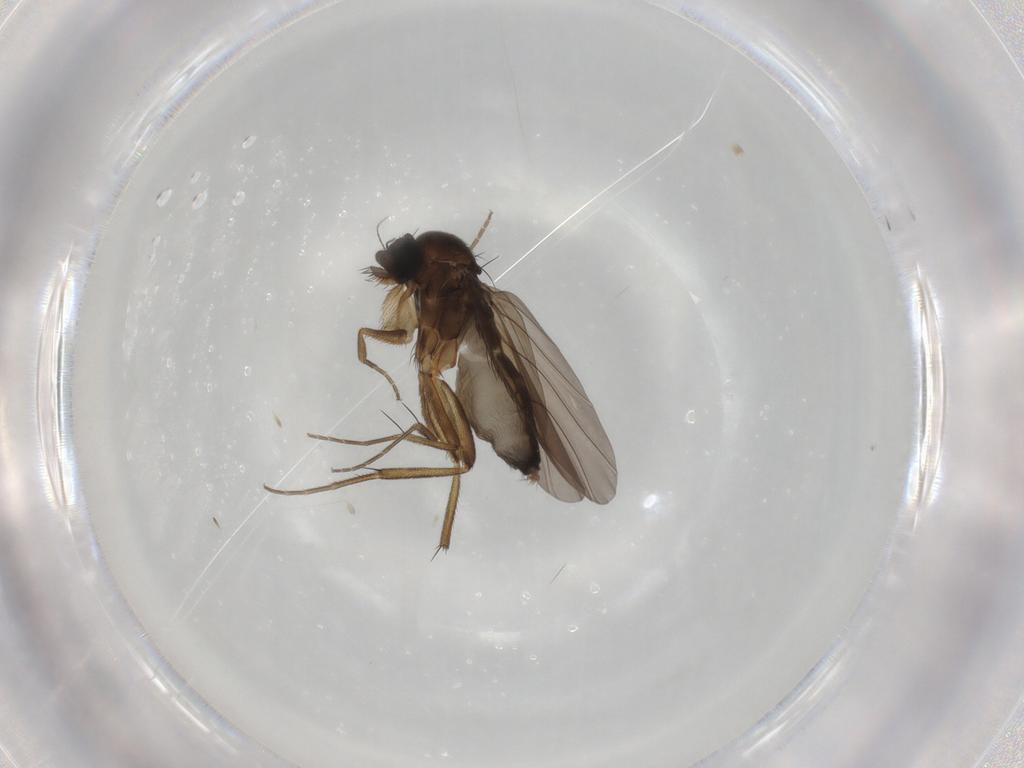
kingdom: Animalia
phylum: Arthropoda
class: Insecta
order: Diptera
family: Phoridae
